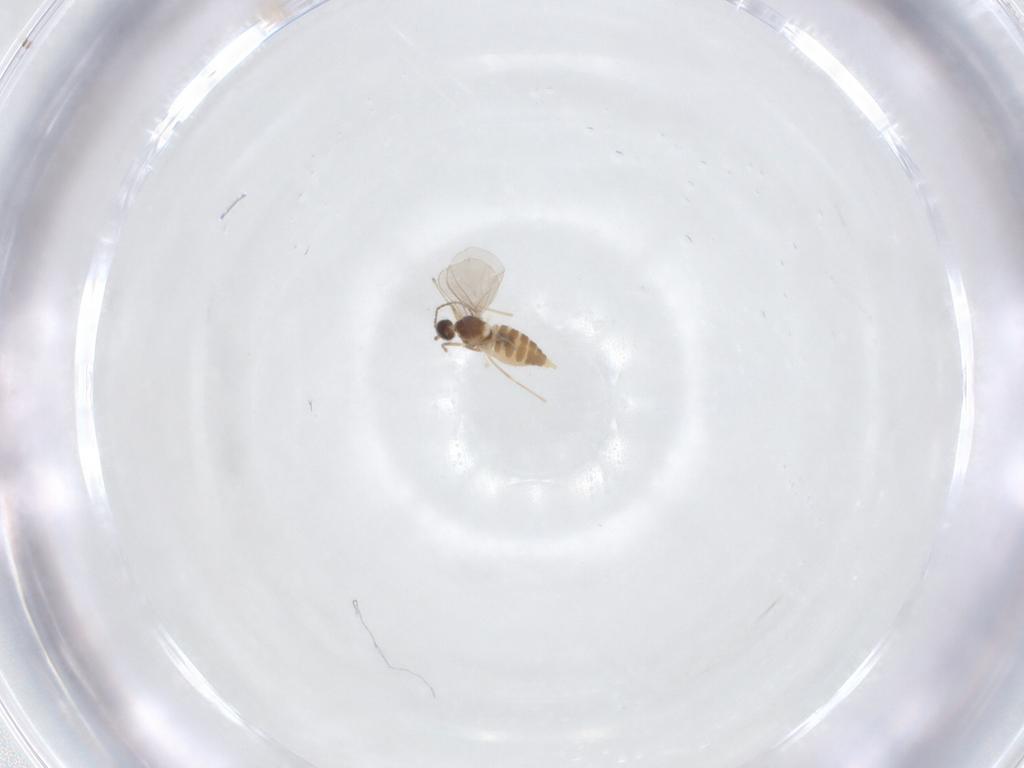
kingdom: Animalia
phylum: Arthropoda
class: Insecta
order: Diptera
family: Cecidomyiidae
